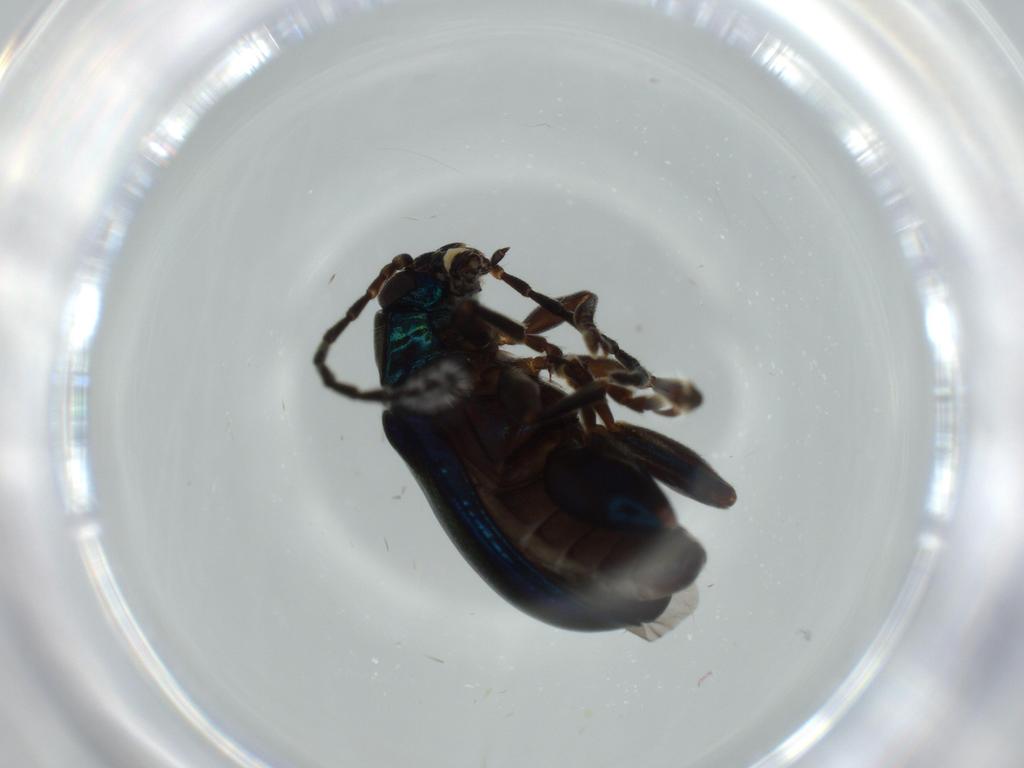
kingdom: Animalia
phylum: Arthropoda
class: Insecta
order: Coleoptera
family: Chrysomelidae
